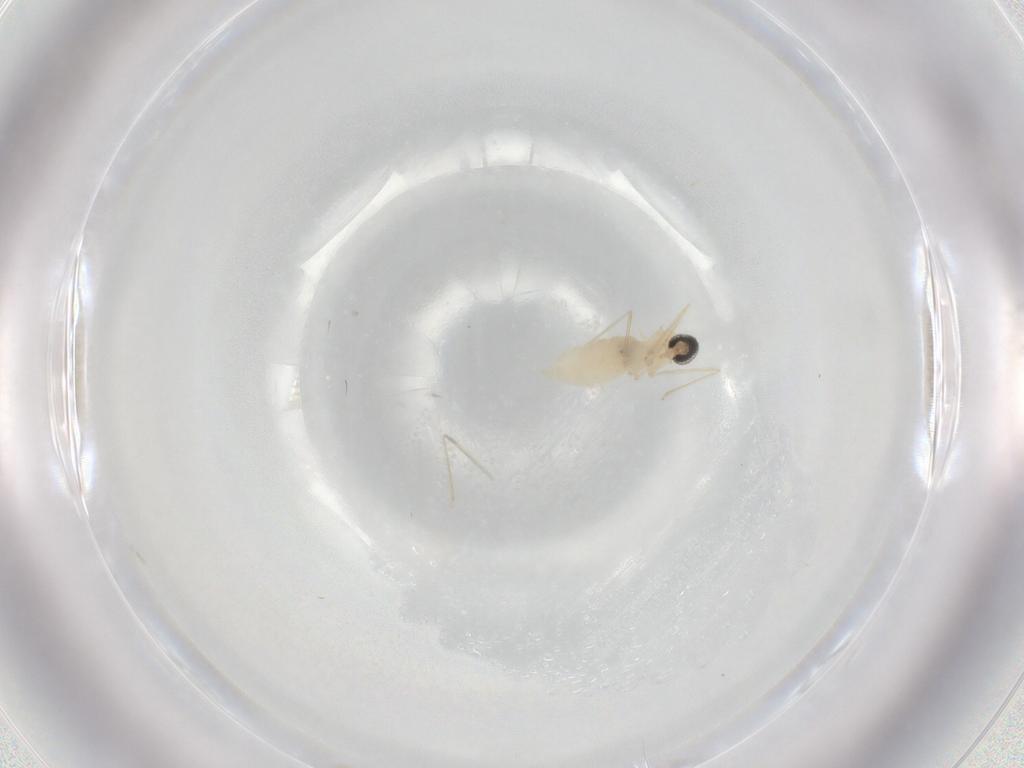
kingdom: Animalia
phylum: Arthropoda
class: Insecta
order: Diptera
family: Cecidomyiidae
